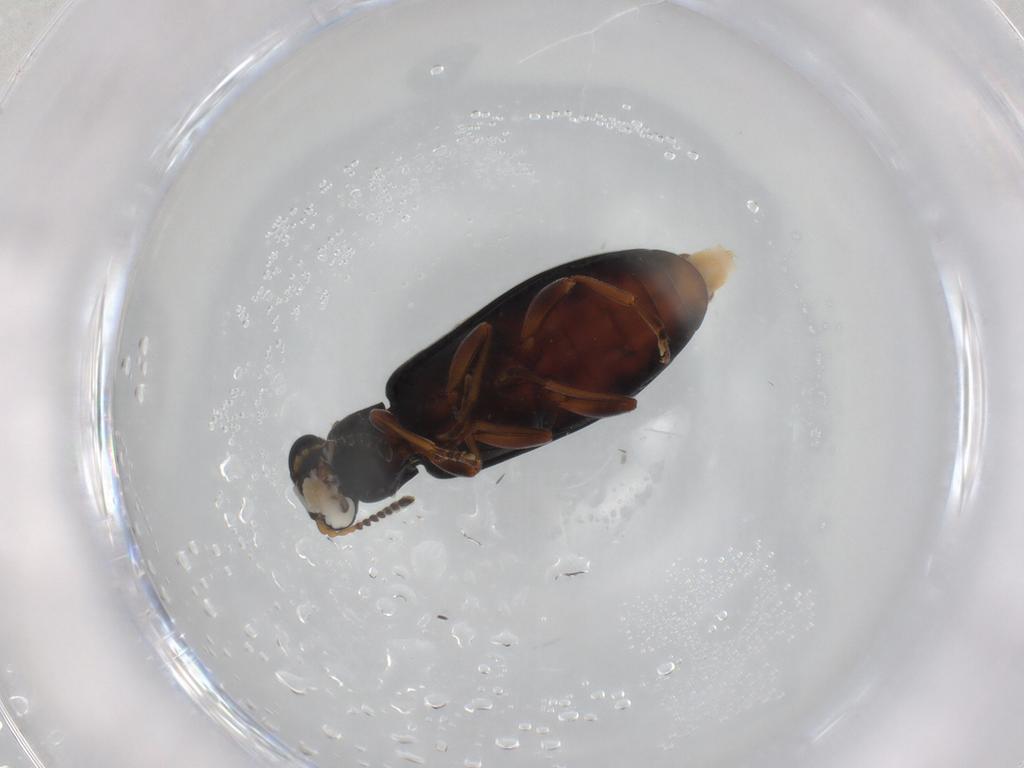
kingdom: Animalia
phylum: Arthropoda
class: Insecta
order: Coleoptera
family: Mycteridae
